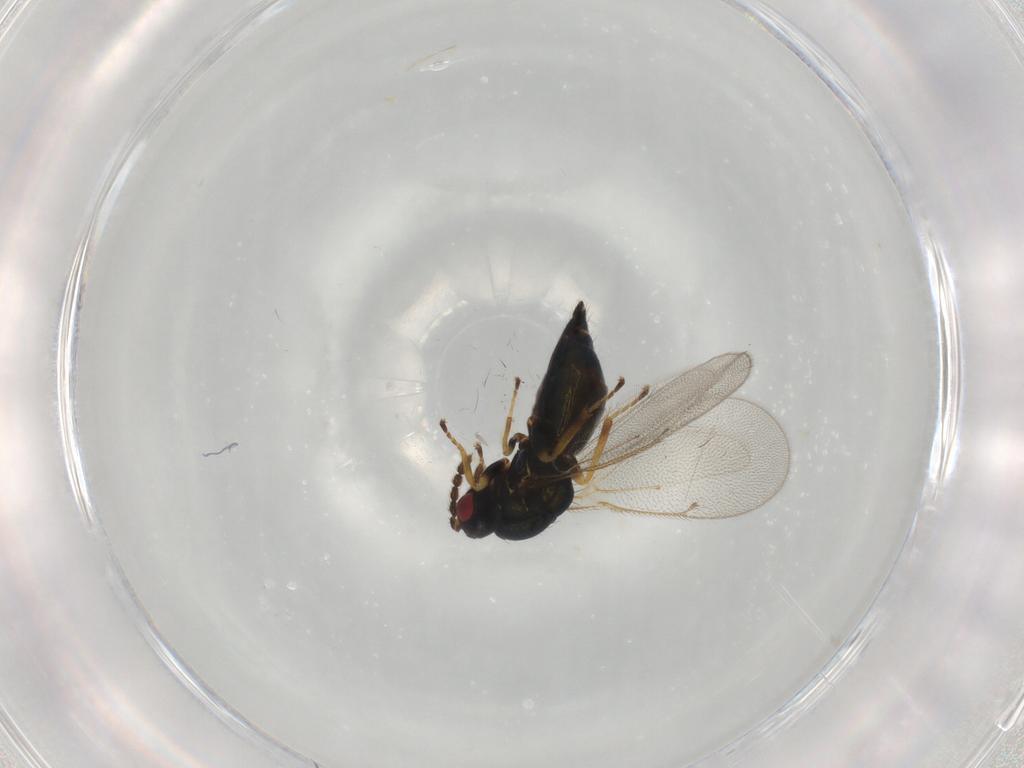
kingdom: Animalia
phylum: Arthropoda
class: Insecta
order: Hymenoptera
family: Eulophidae
